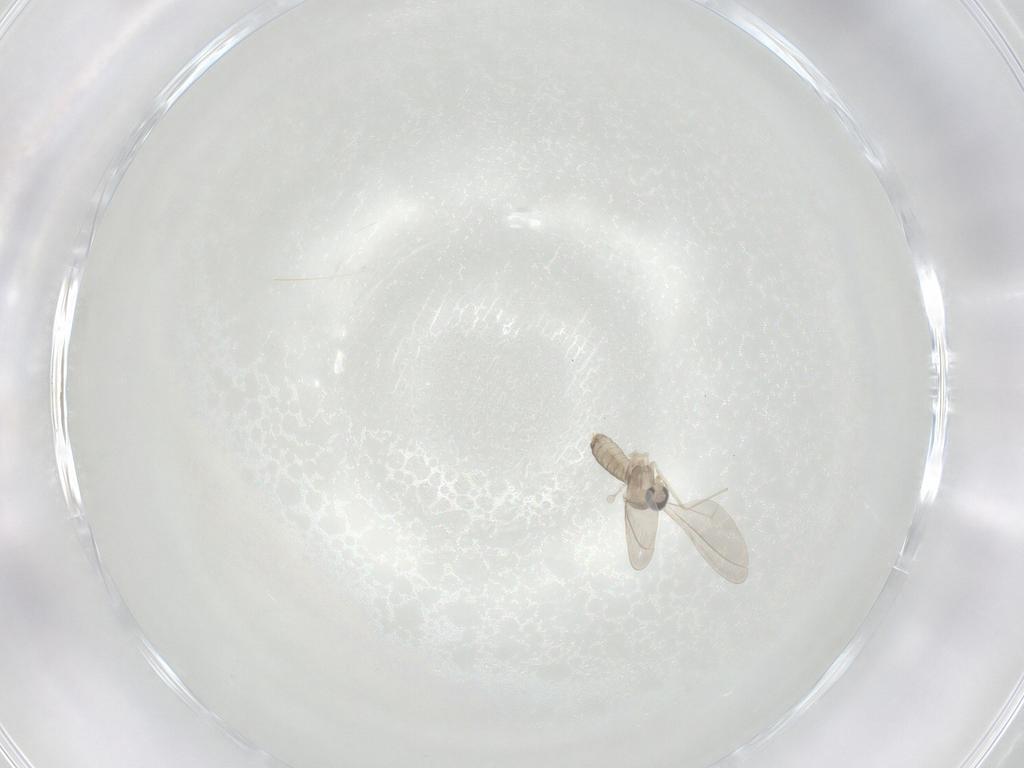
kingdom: Animalia
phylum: Arthropoda
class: Insecta
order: Diptera
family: Cecidomyiidae
